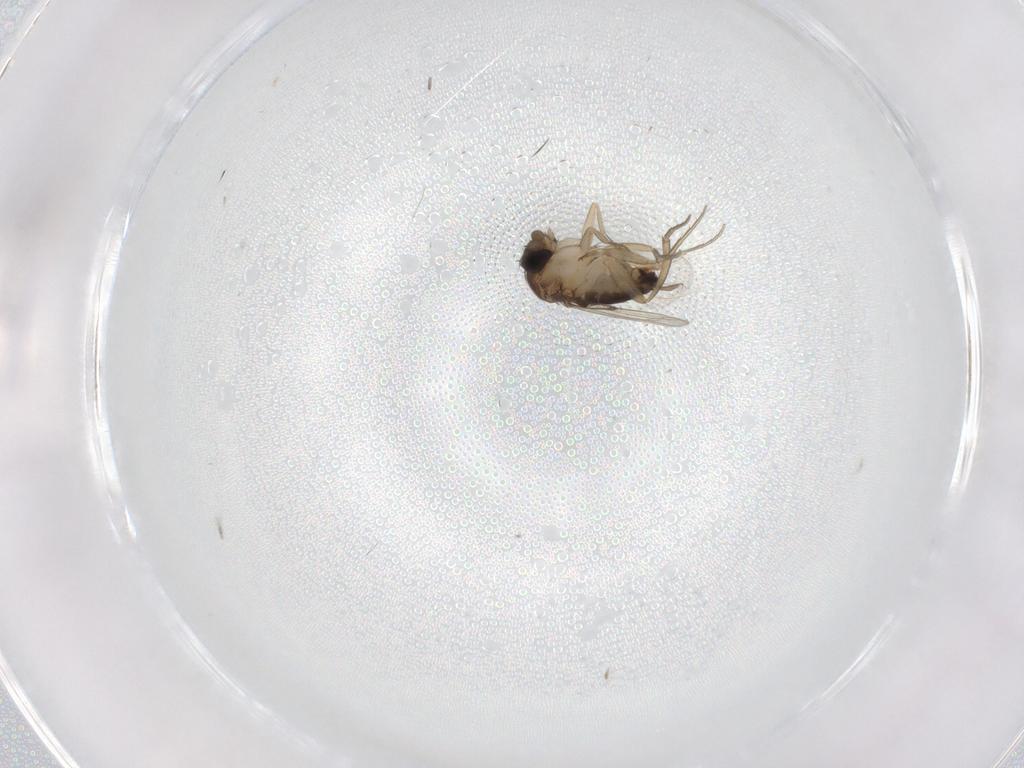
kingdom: Animalia
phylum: Arthropoda
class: Insecta
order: Diptera
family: Phoridae
